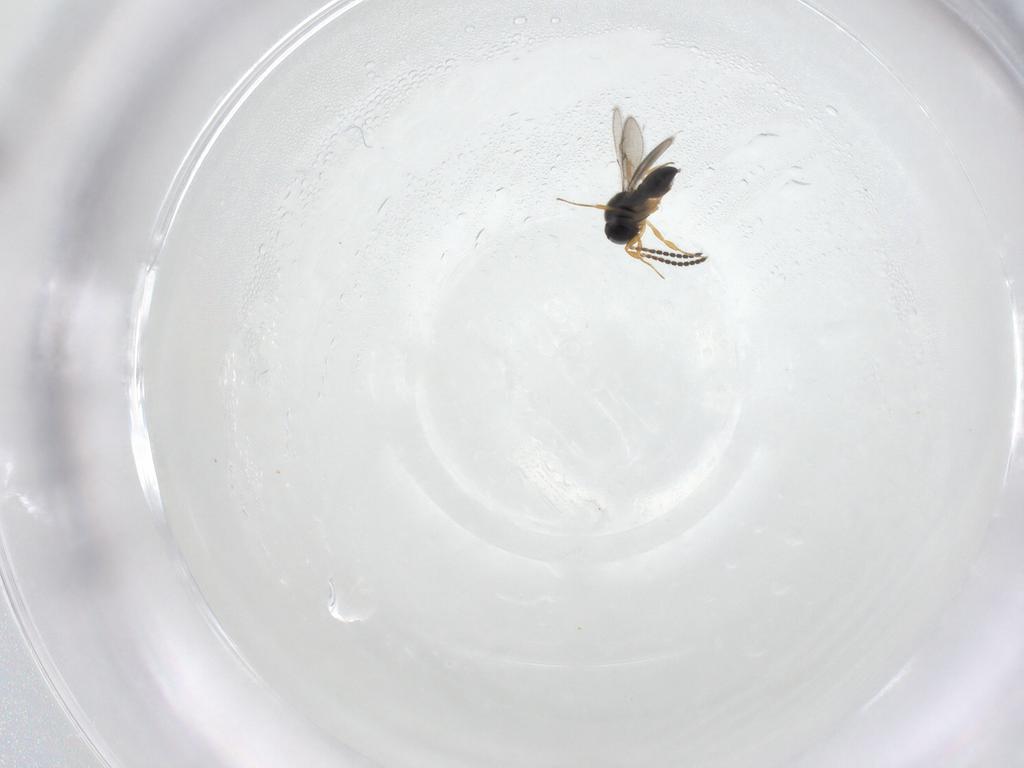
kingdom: Animalia
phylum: Arthropoda
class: Insecta
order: Hymenoptera
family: Scelionidae
